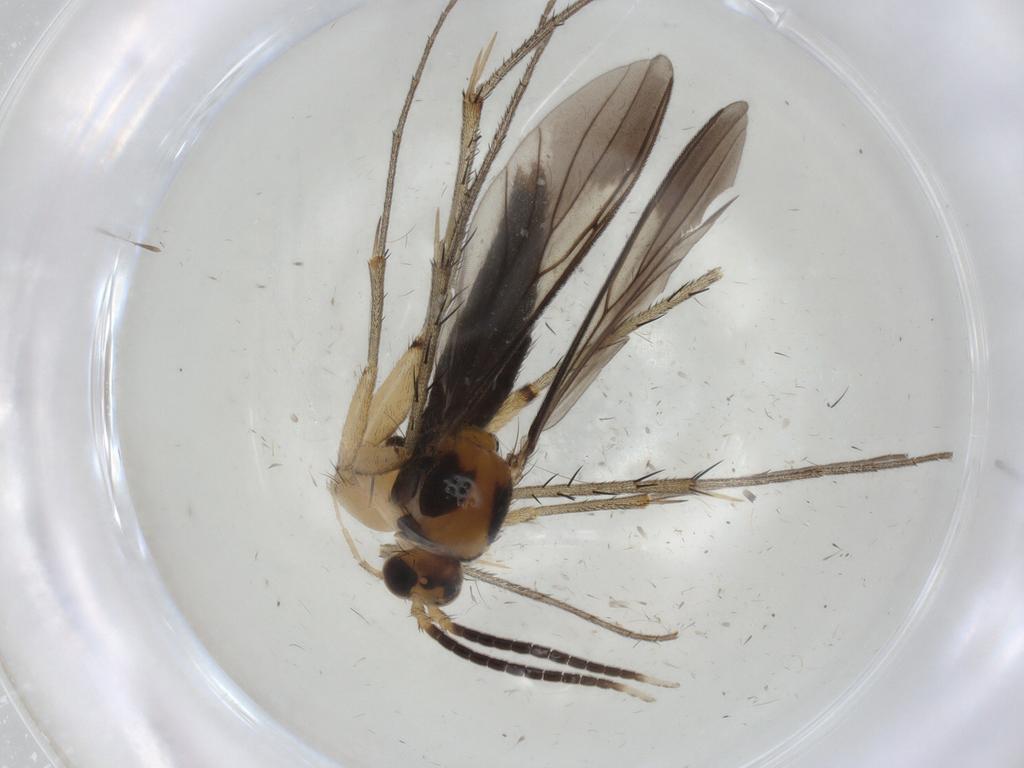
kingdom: Animalia
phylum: Arthropoda
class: Insecta
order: Diptera
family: Mycetophilidae
